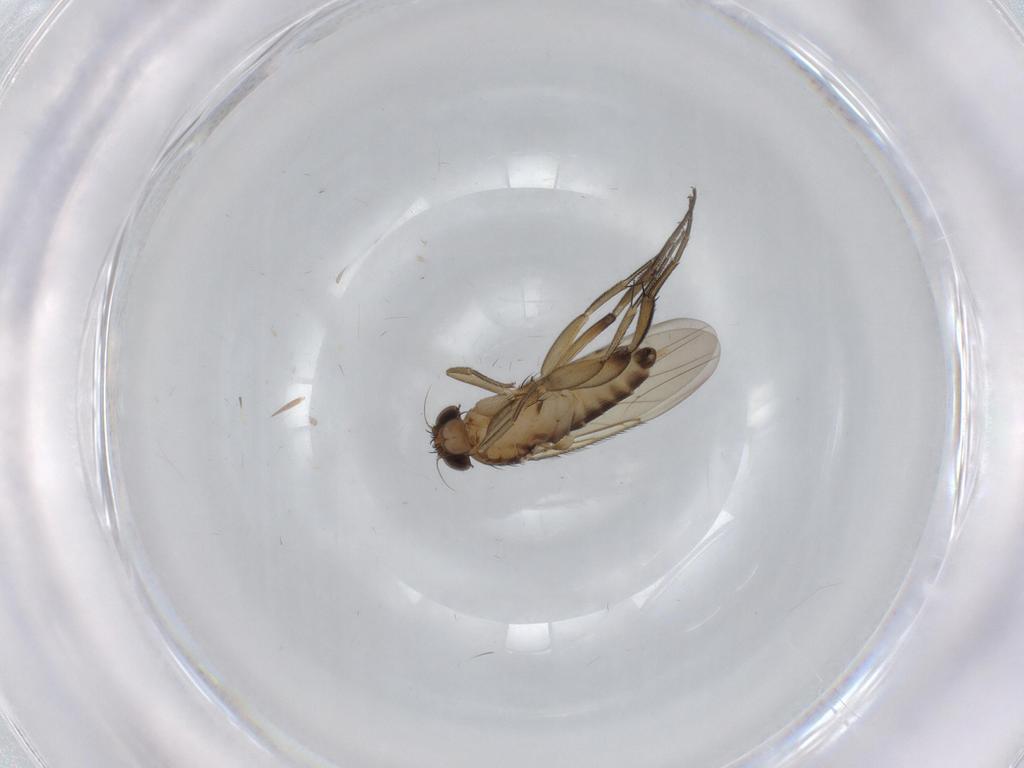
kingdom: Animalia
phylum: Arthropoda
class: Insecta
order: Diptera
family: Phoridae
